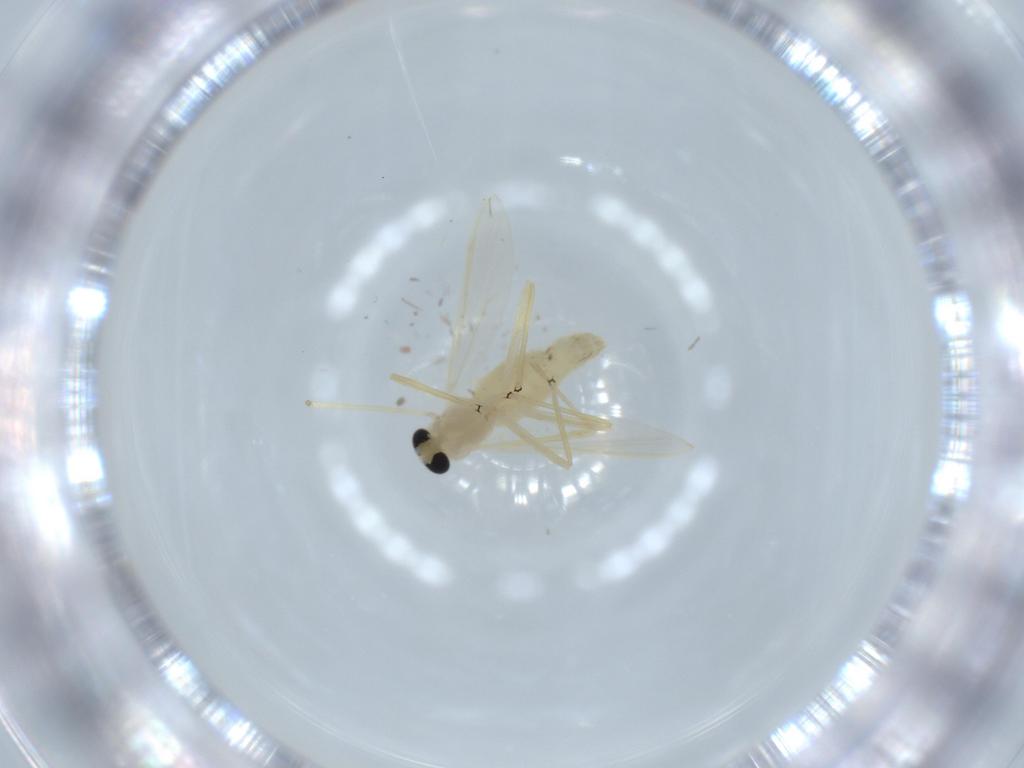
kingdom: Animalia
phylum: Arthropoda
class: Insecta
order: Diptera
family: Chironomidae
